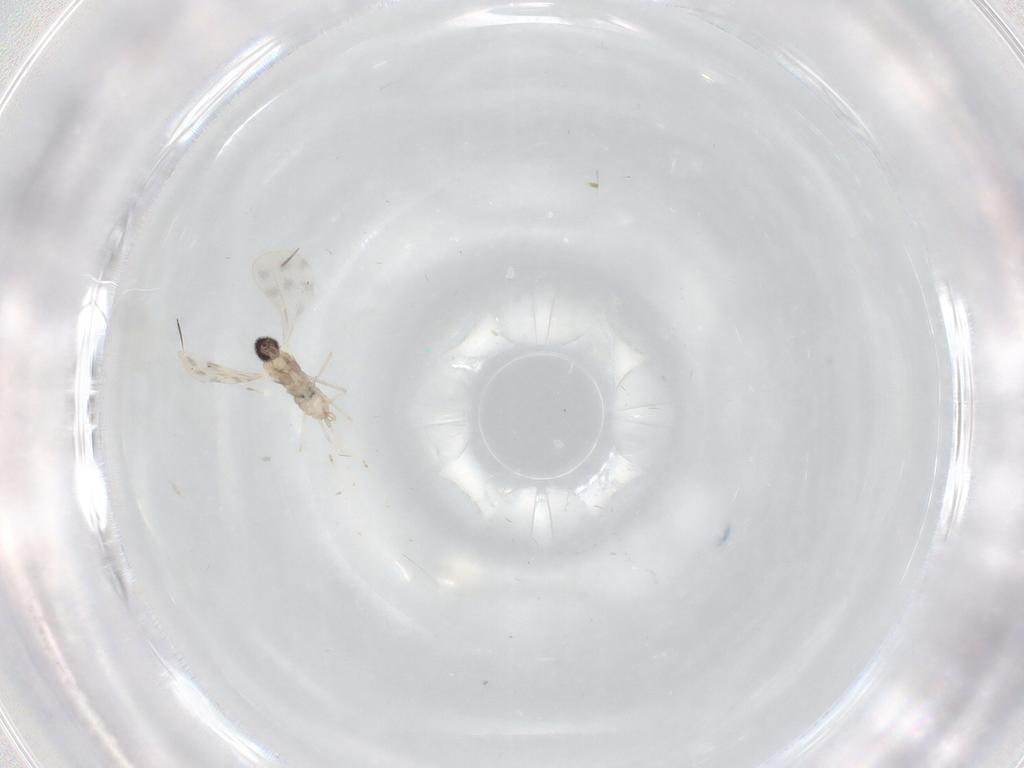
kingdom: Animalia
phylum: Arthropoda
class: Insecta
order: Diptera
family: Cecidomyiidae
